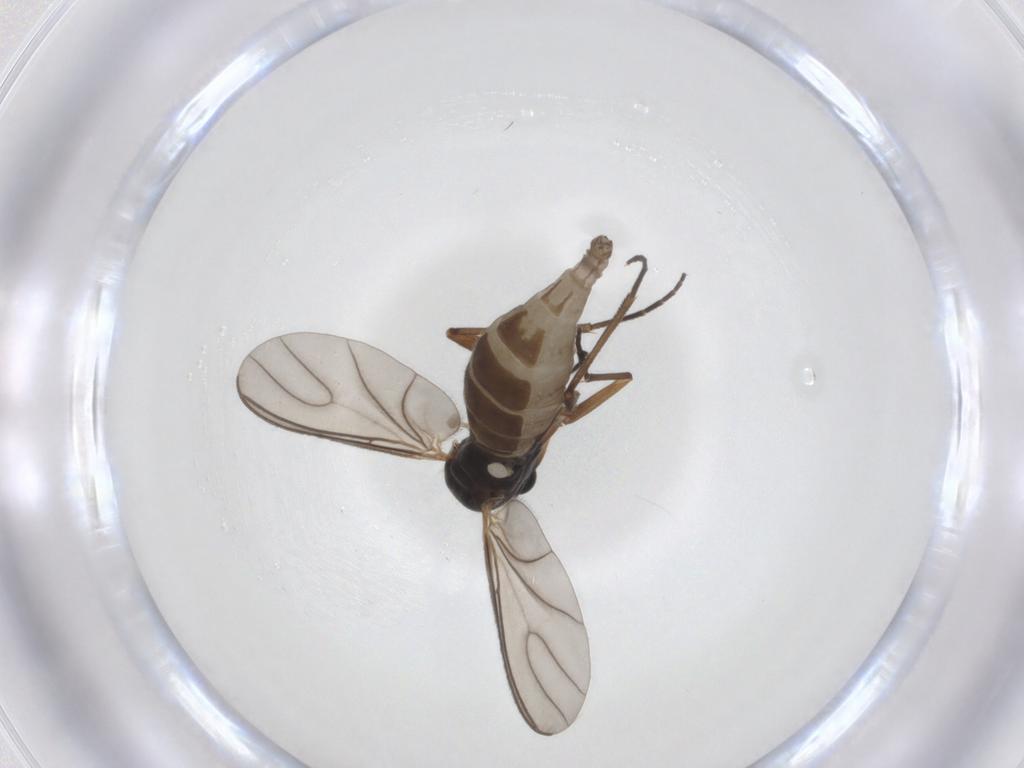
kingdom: Animalia
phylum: Arthropoda
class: Insecta
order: Diptera
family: Sciaridae
